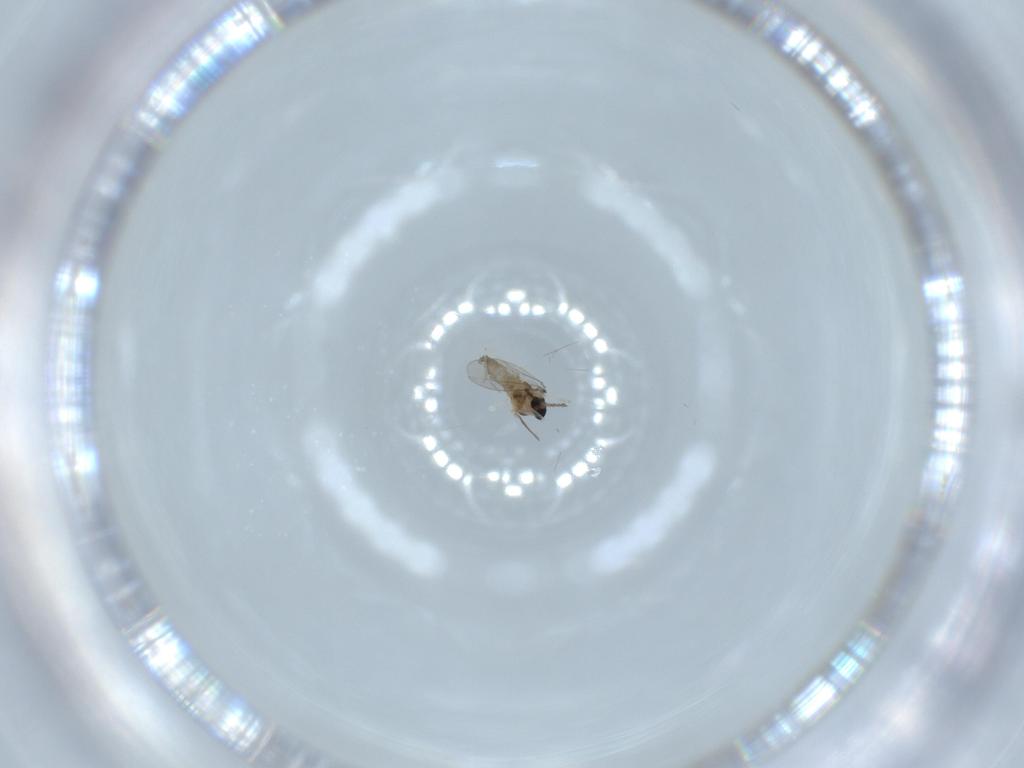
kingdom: Animalia
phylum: Arthropoda
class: Insecta
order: Diptera
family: Cecidomyiidae
